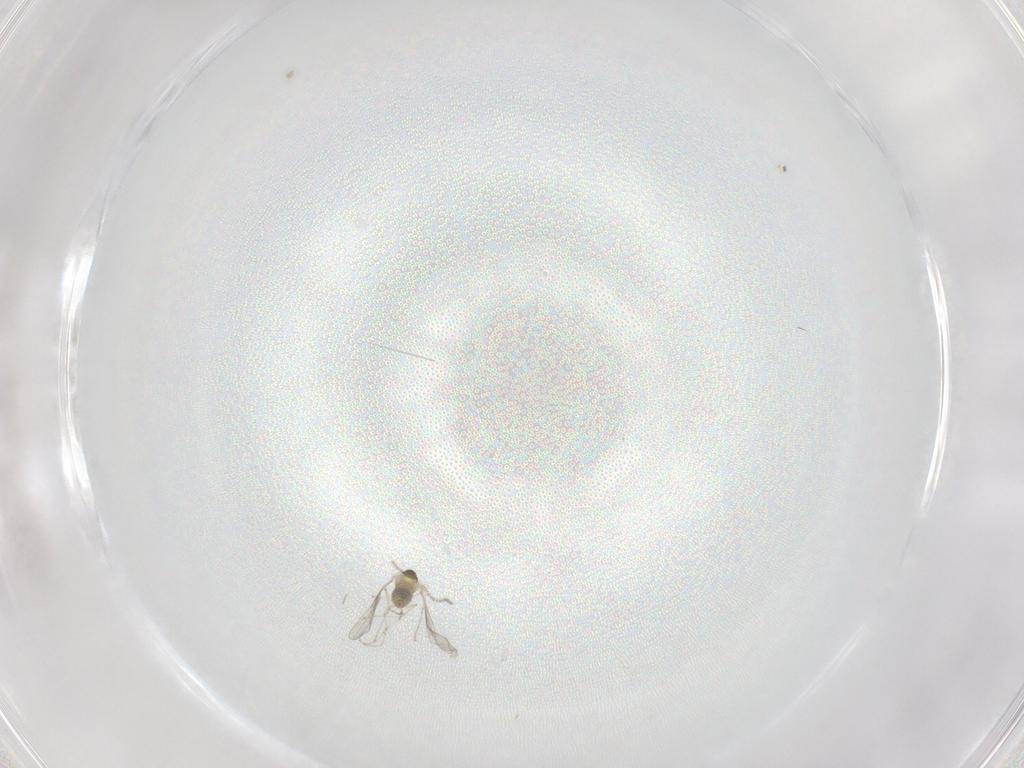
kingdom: Animalia
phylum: Arthropoda
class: Insecta
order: Diptera
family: Cecidomyiidae
